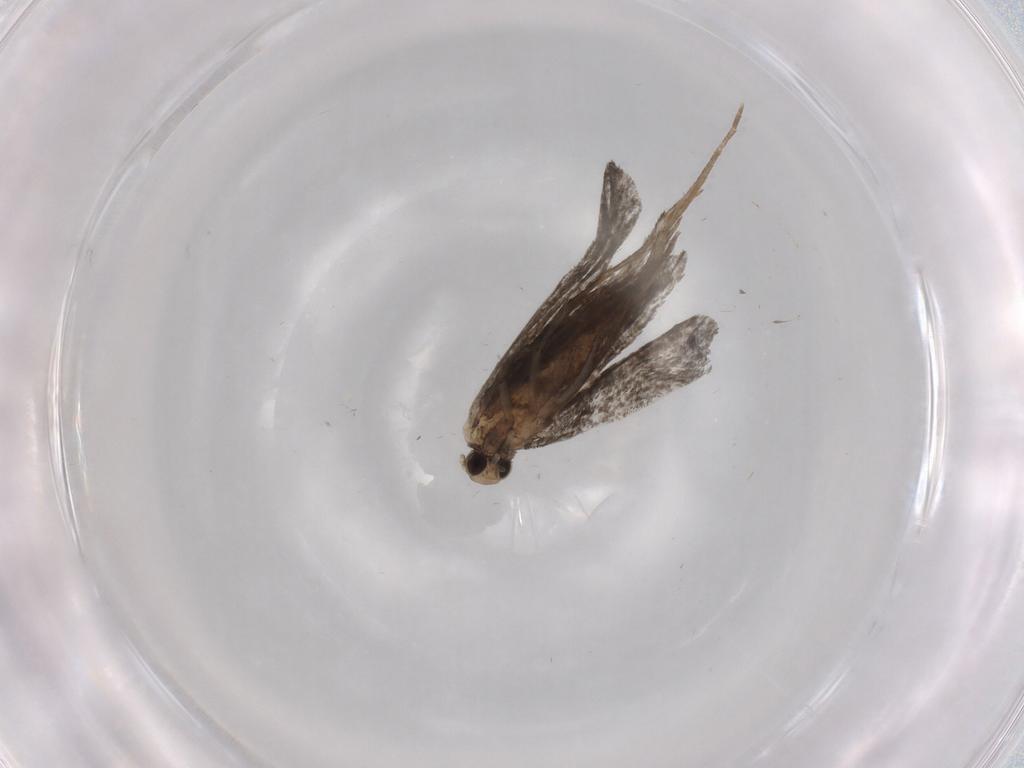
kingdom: Animalia
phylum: Arthropoda
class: Insecta
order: Lepidoptera
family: Nymphalidae
